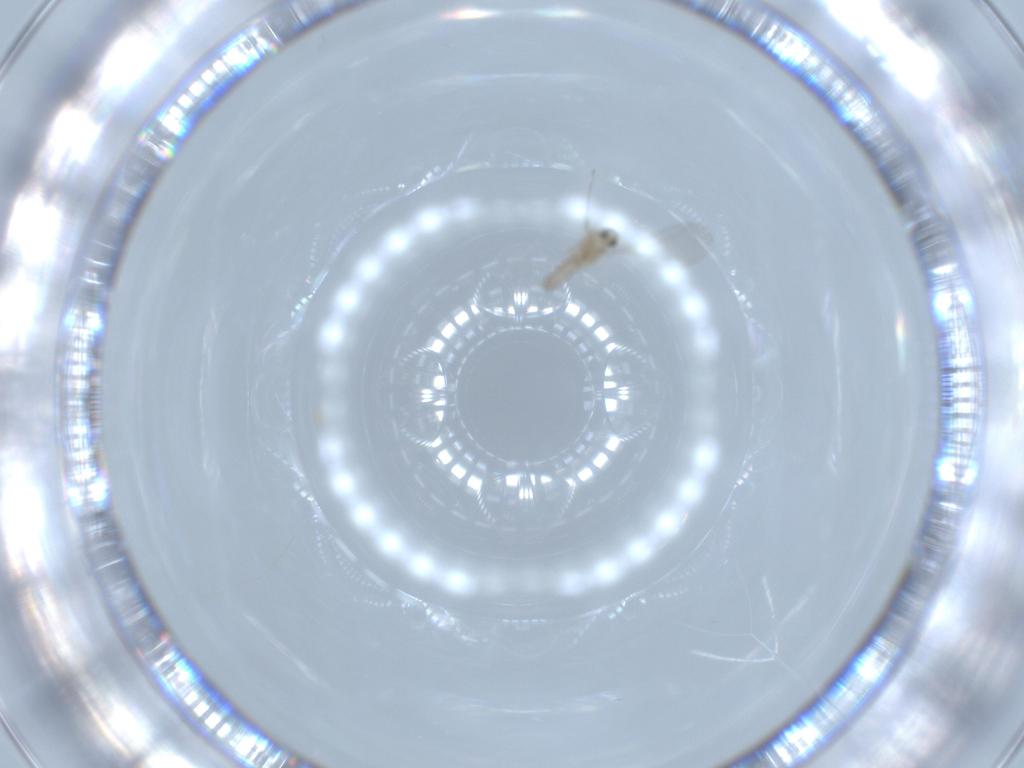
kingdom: Animalia
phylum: Arthropoda
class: Insecta
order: Diptera
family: Cecidomyiidae
